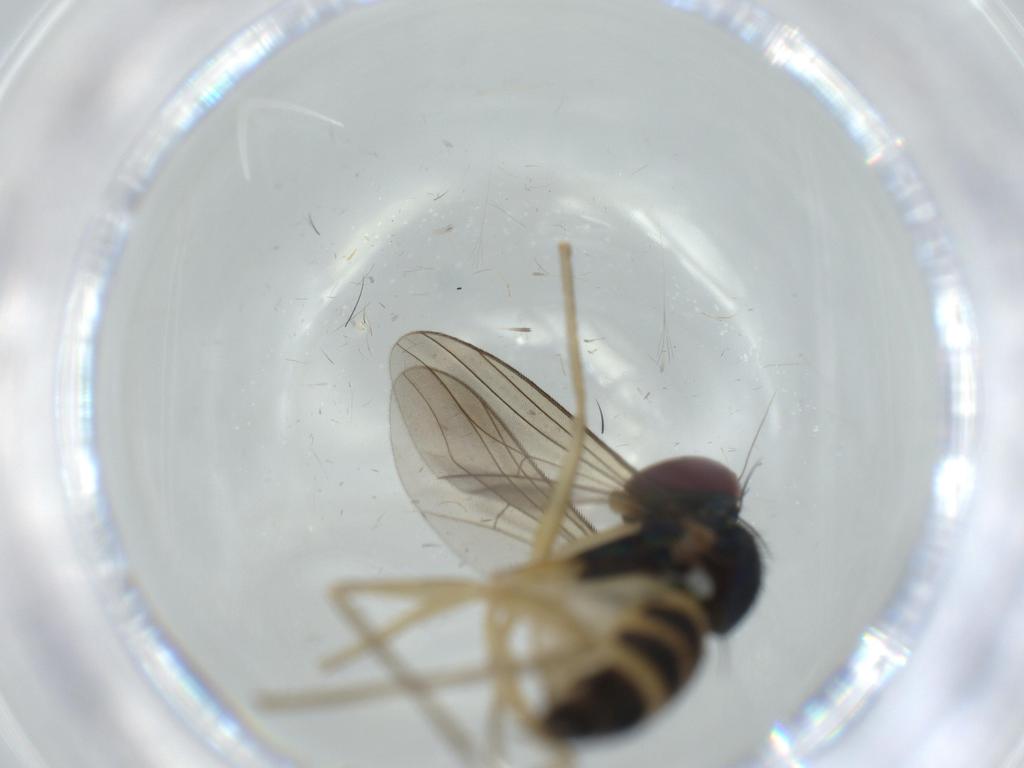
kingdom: Animalia
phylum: Arthropoda
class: Insecta
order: Diptera
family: Dolichopodidae
